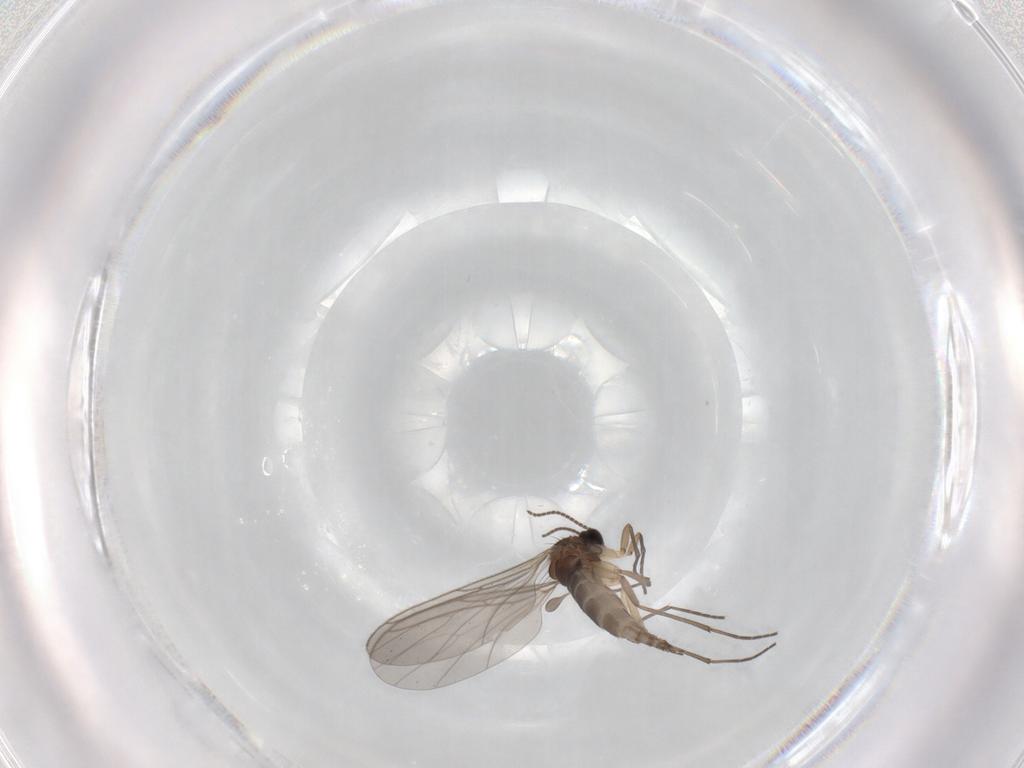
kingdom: Animalia
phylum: Arthropoda
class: Insecta
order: Diptera
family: Sciaridae
